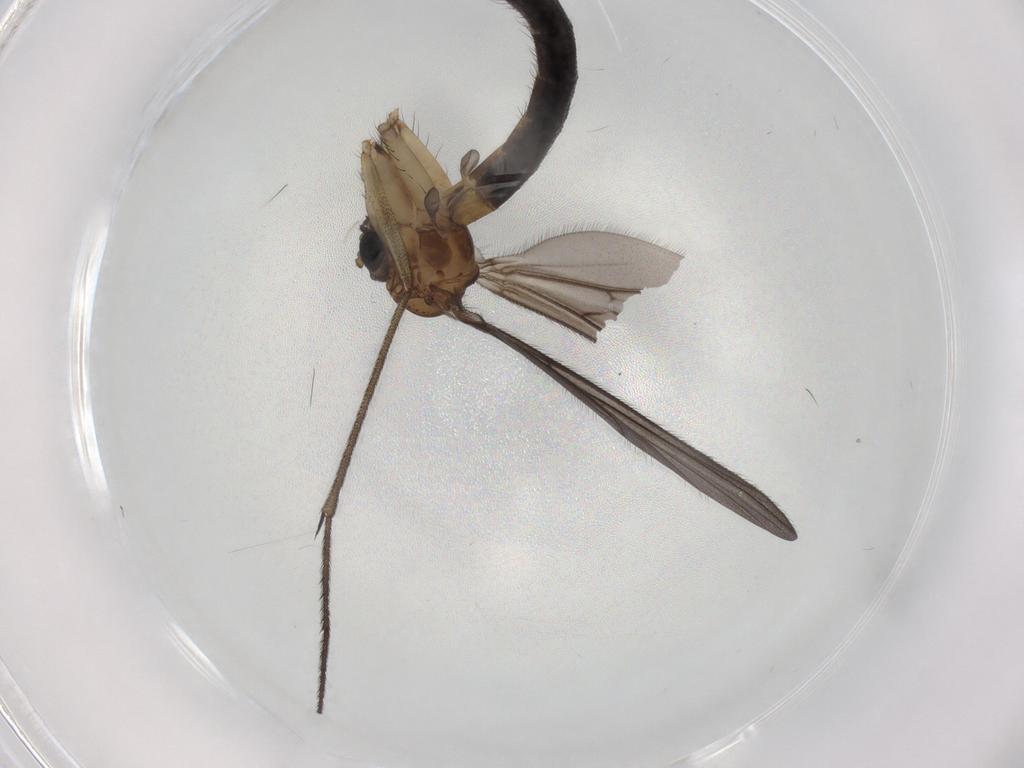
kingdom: Animalia
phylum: Arthropoda
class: Insecta
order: Diptera
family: Ditomyiidae
